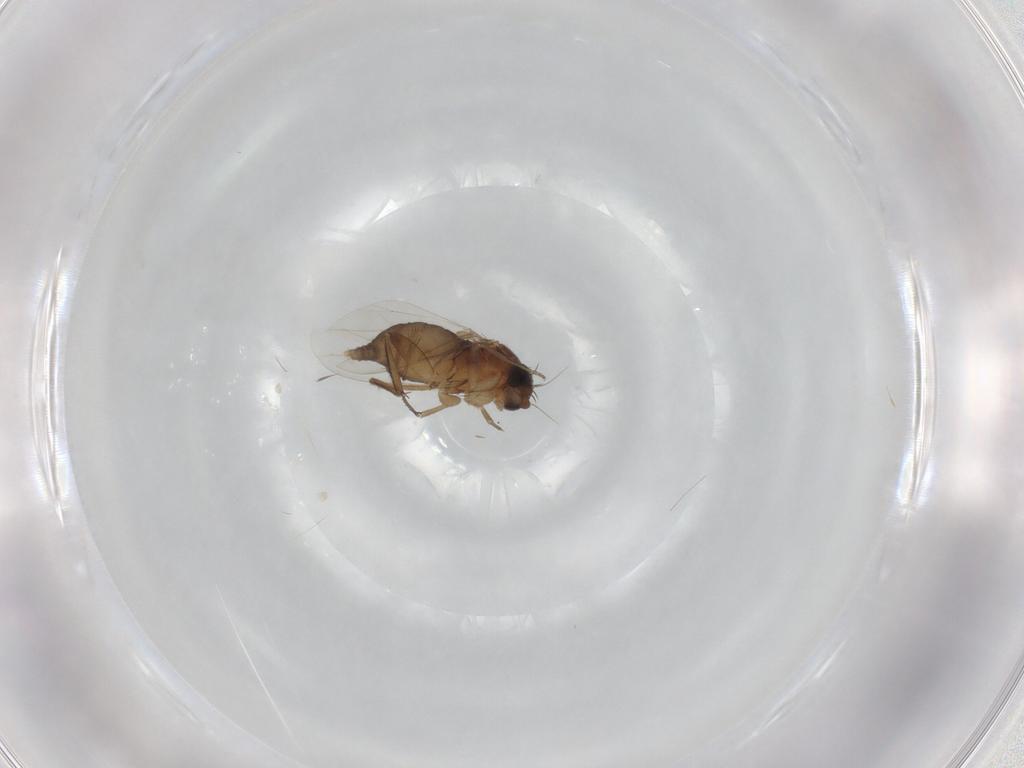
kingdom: Animalia
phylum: Arthropoda
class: Insecta
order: Diptera
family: Phoridae
